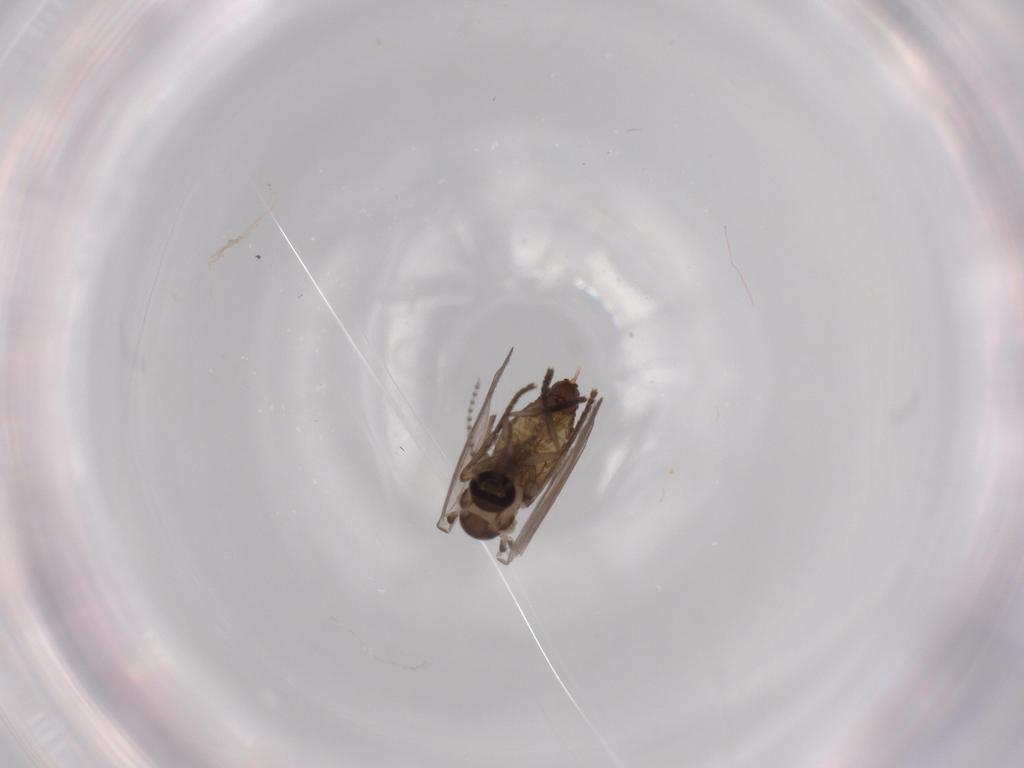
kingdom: Animalia
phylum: Arthropoda
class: Insecta
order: Diptera
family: Psychodidae
